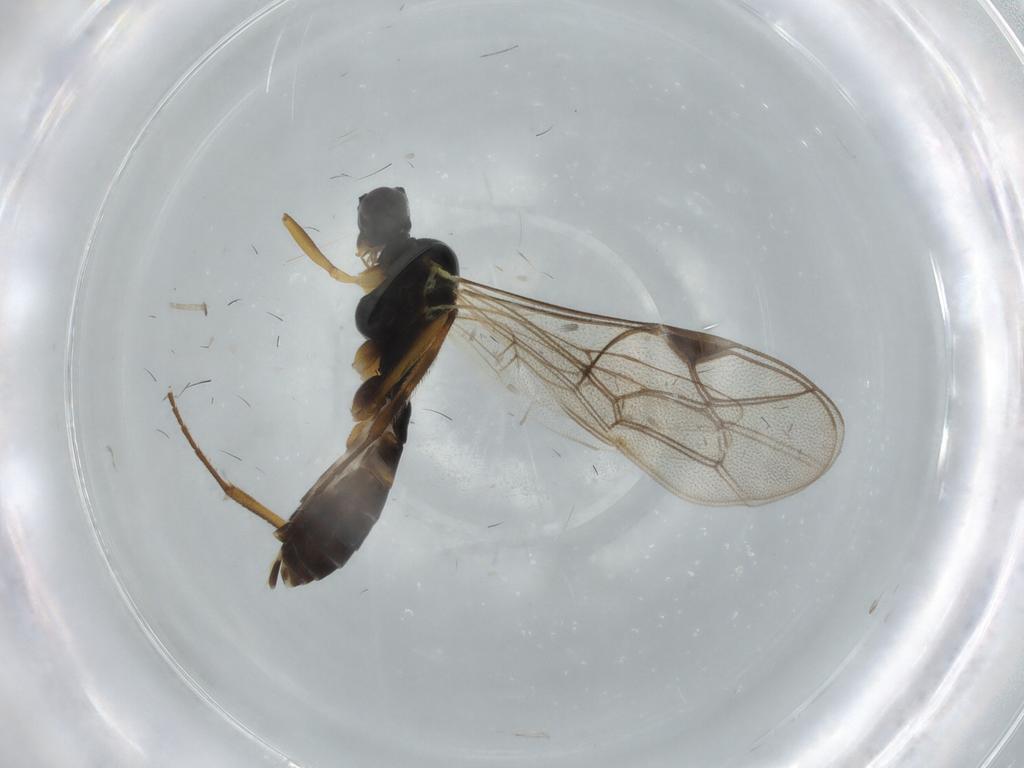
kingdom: Animalia
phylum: Arthropoda
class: Insecta
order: Hymenoptera
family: Ichneumonidae
